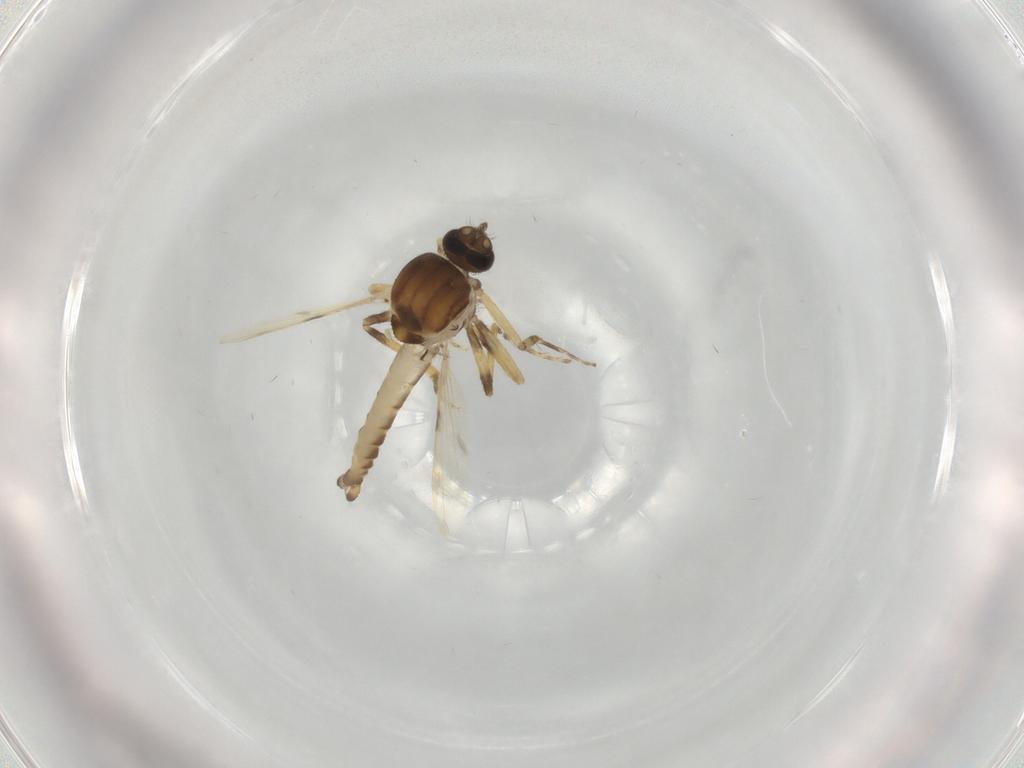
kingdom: Animalia
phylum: Arthropoda
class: Insecta
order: Diptera
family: Ceratopogonidae
